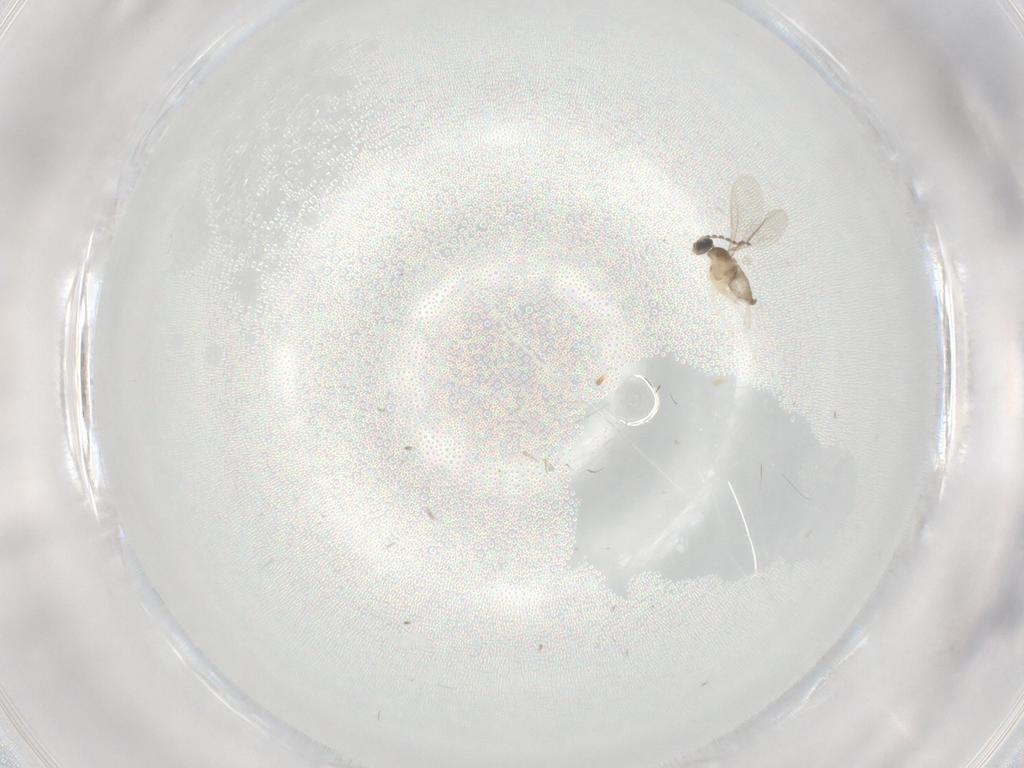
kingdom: Animalia
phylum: Arthropoda
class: Insecta
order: Diptera
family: Cecidomyiidae
